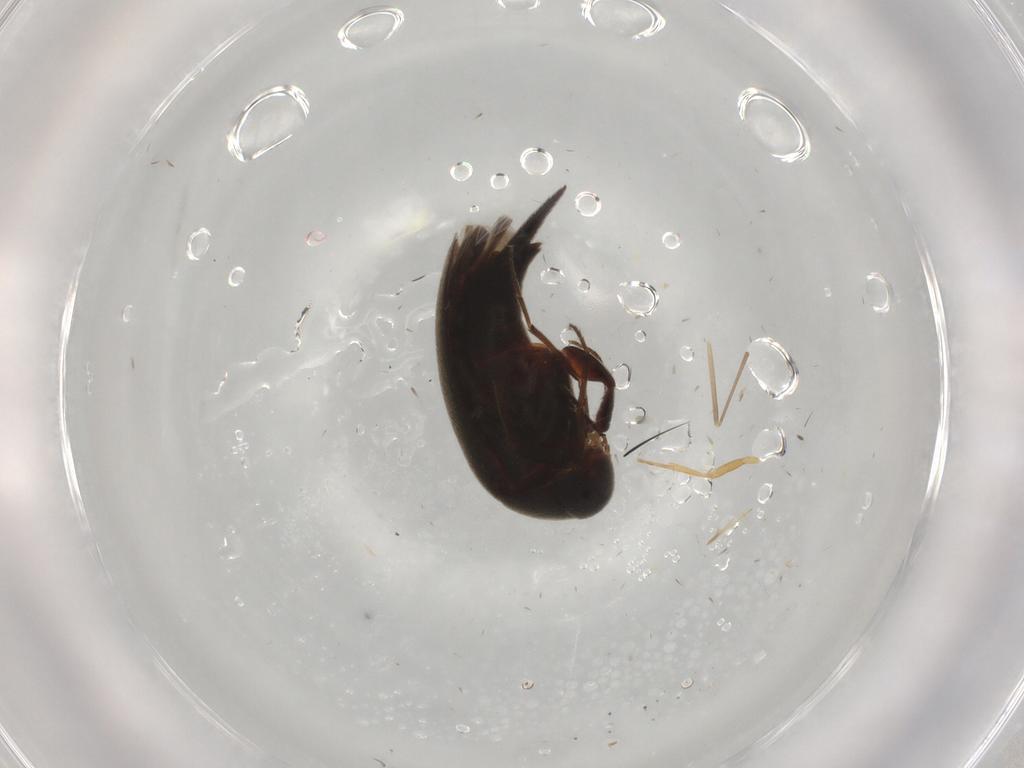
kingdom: Animalia
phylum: Arthropoda
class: Insecta
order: Coleoptera
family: Mordellidae
